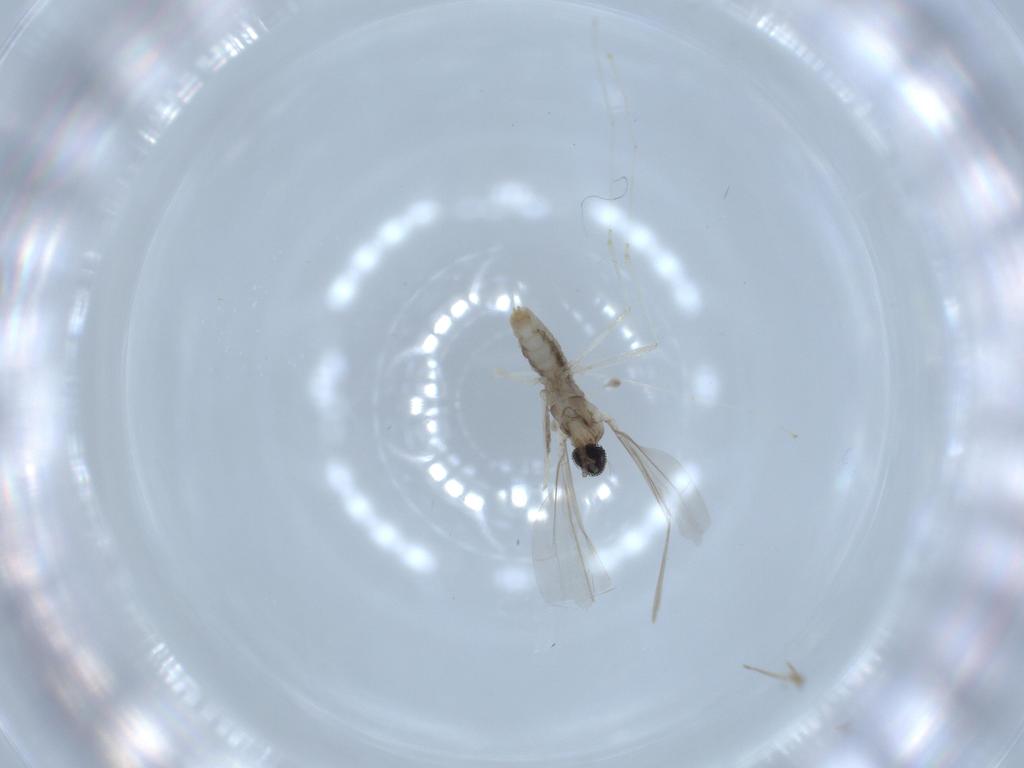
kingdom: Animalia
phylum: Arthropoda
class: Insecta
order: Diptera
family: Cecidomyiidae
